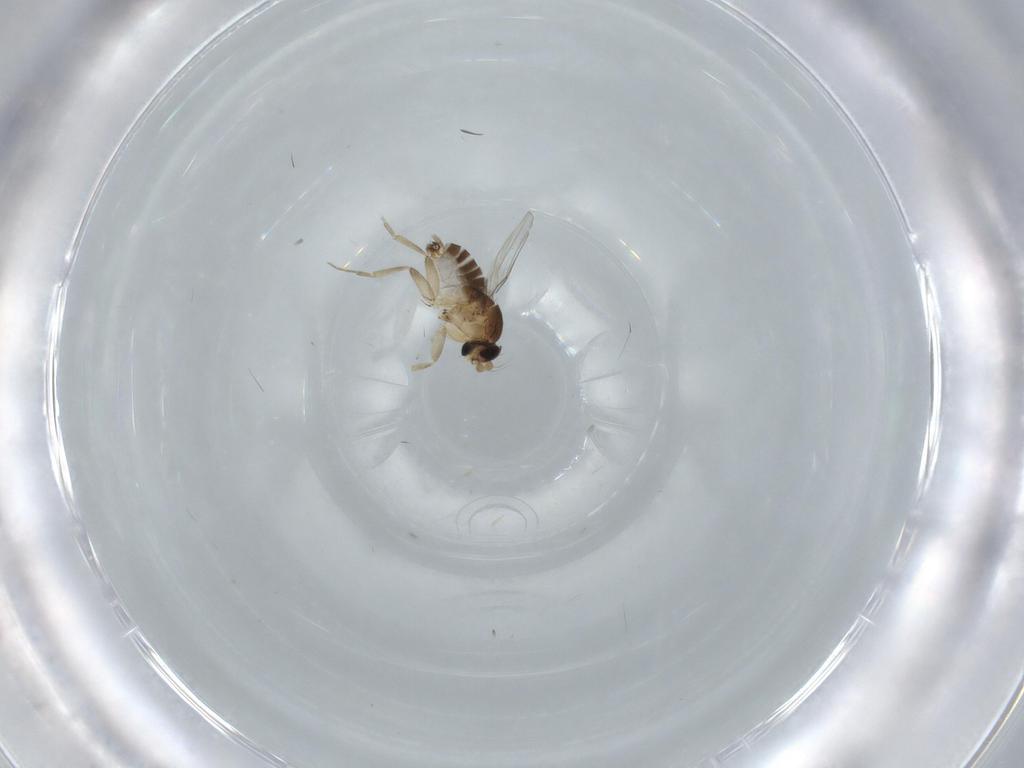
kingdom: Animalia
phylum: Arthropoda
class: Insecta
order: Diptera
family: Phoridae
